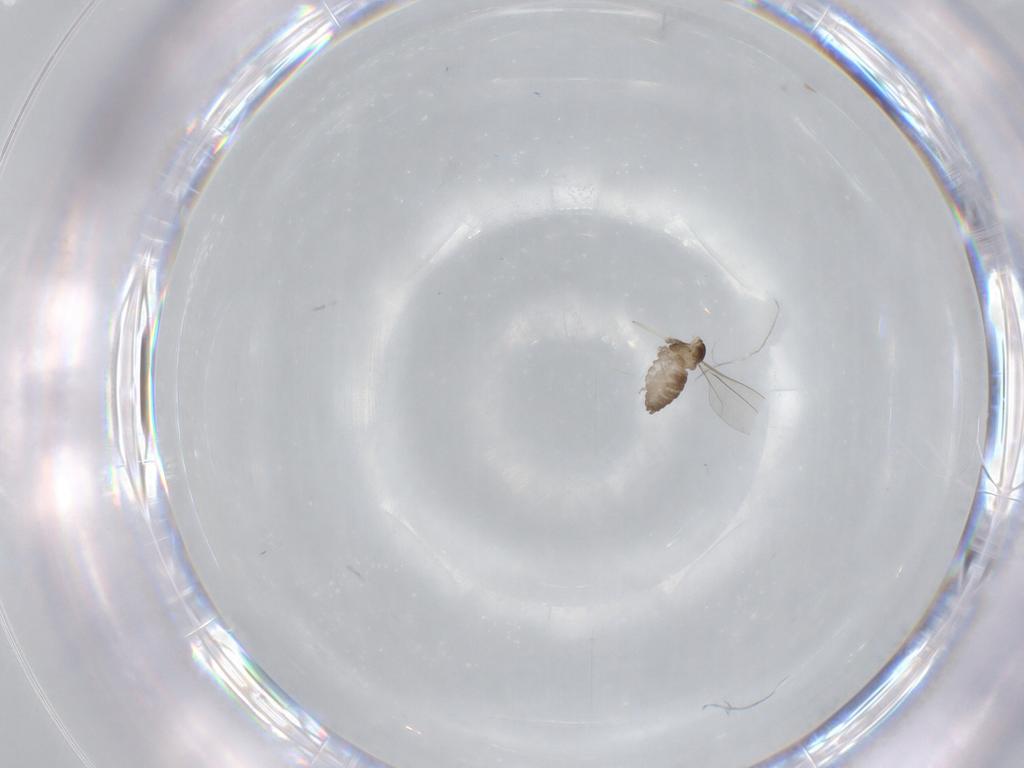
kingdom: Animalia
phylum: Arthropoda
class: Insecta
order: Diptera
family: Cecidomyiidae
